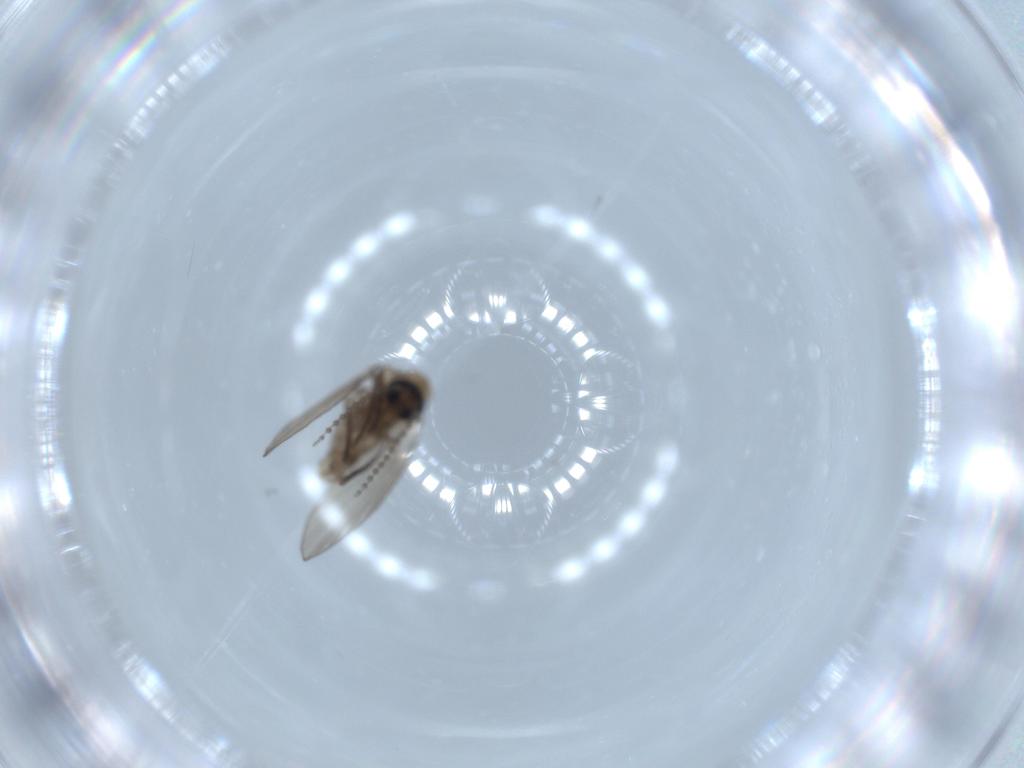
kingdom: Animalia
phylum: Arthropoda
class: Insecta
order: Diptera
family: Psychodidae
